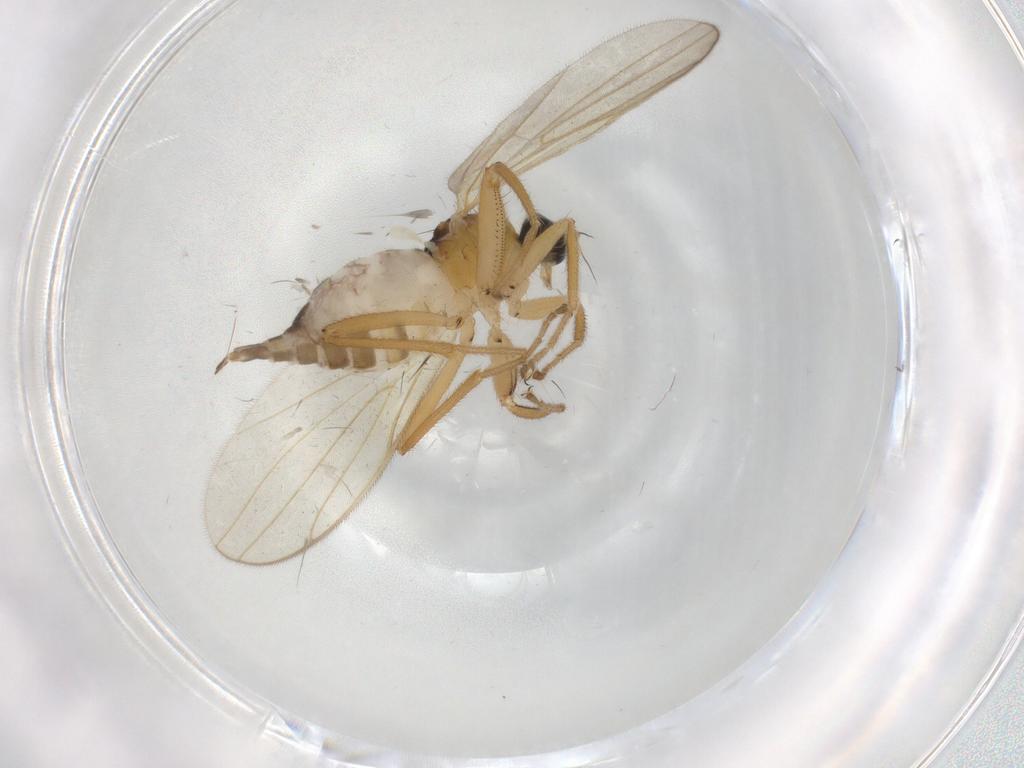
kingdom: Animalia
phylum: Arthropoda
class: Insecta
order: Diptera
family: Hybotidae
